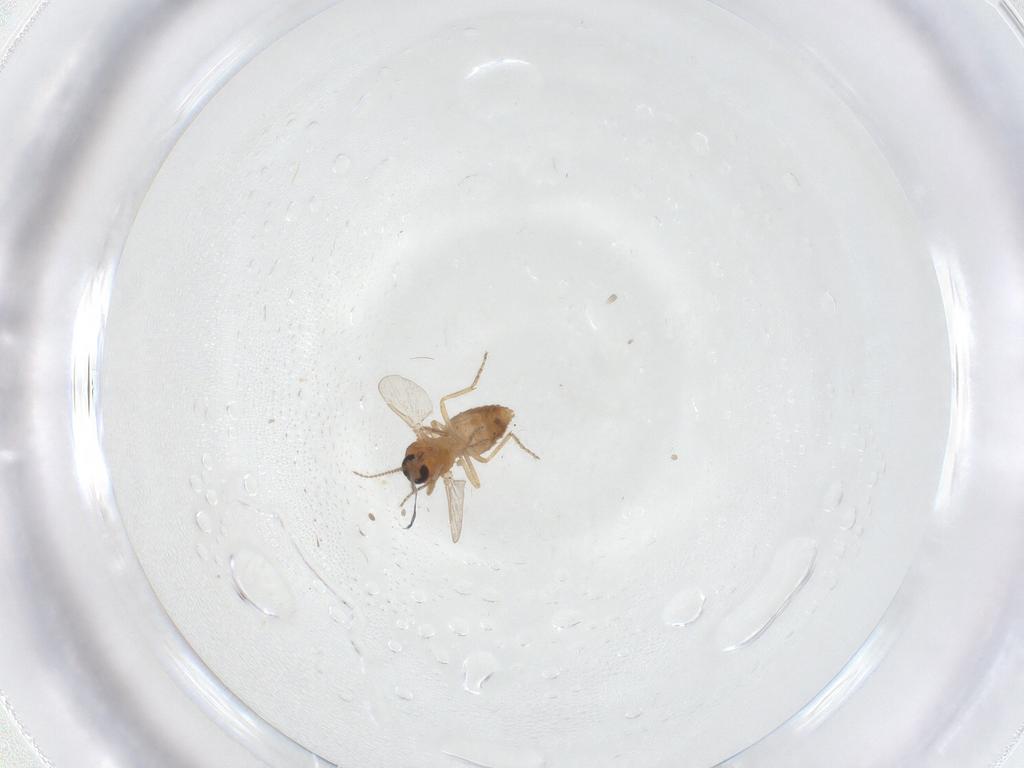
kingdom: Animalia
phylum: Arthropoda
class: Insecta
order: Diptera
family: Ceratopogonidae
